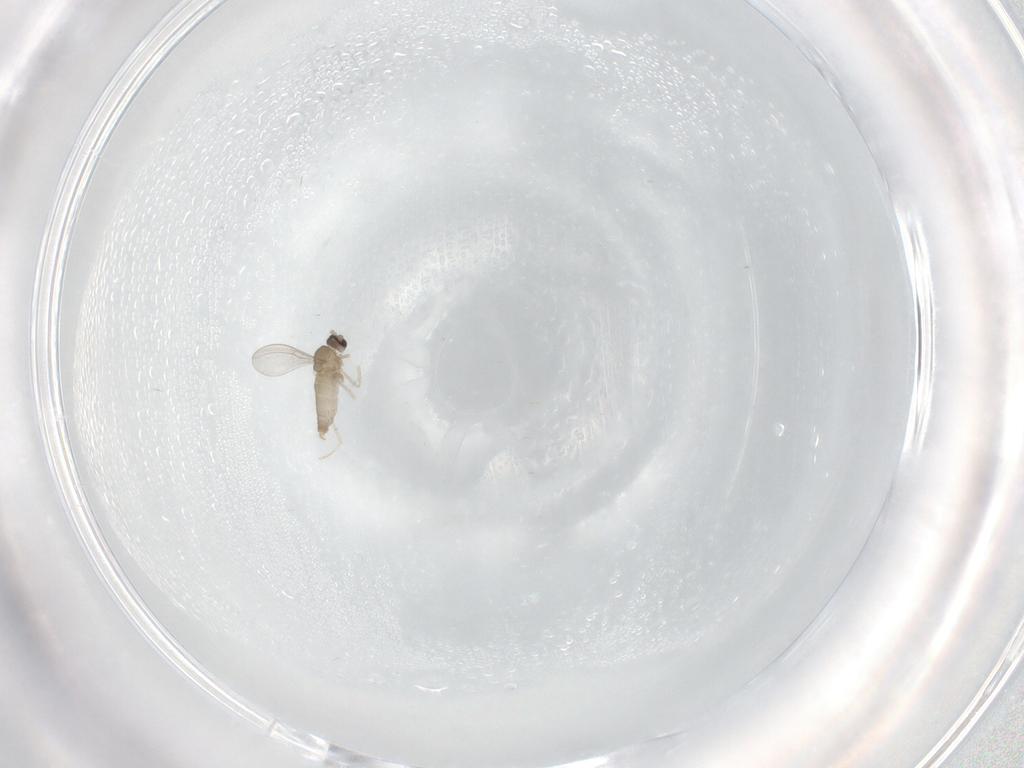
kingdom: Animalia
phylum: Arthropoda
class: Insecta
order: Diptera
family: Cecidomyiidae
